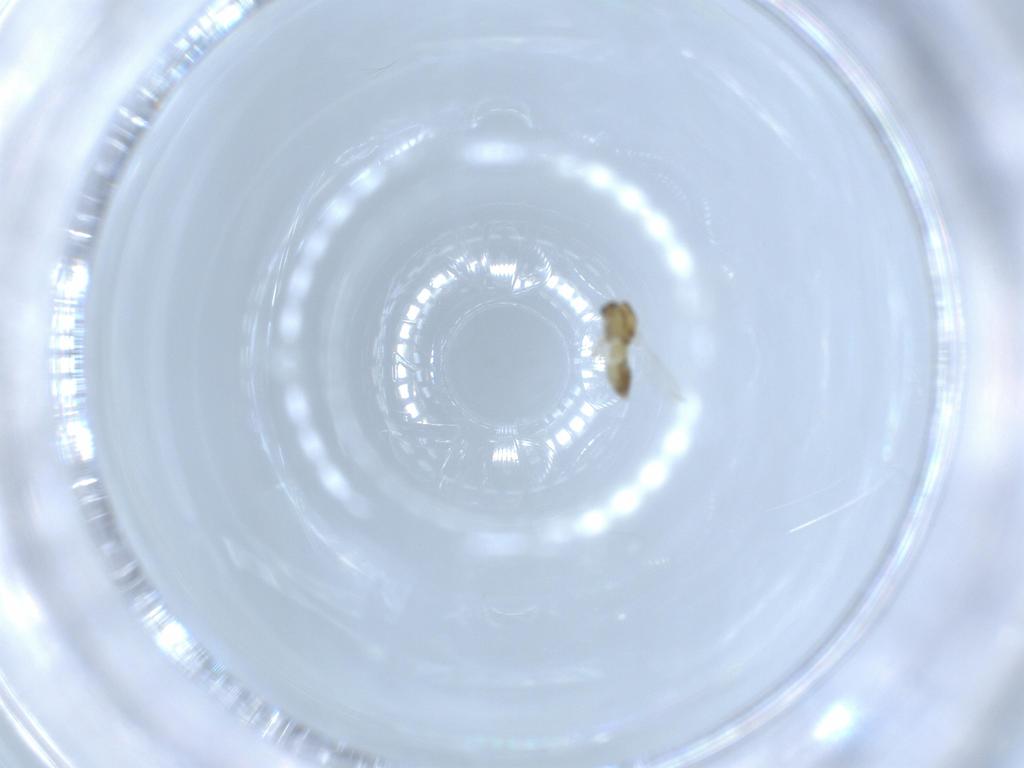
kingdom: Animalia
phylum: Arthropoda
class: Insecta
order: Diptera
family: Chironomidae
